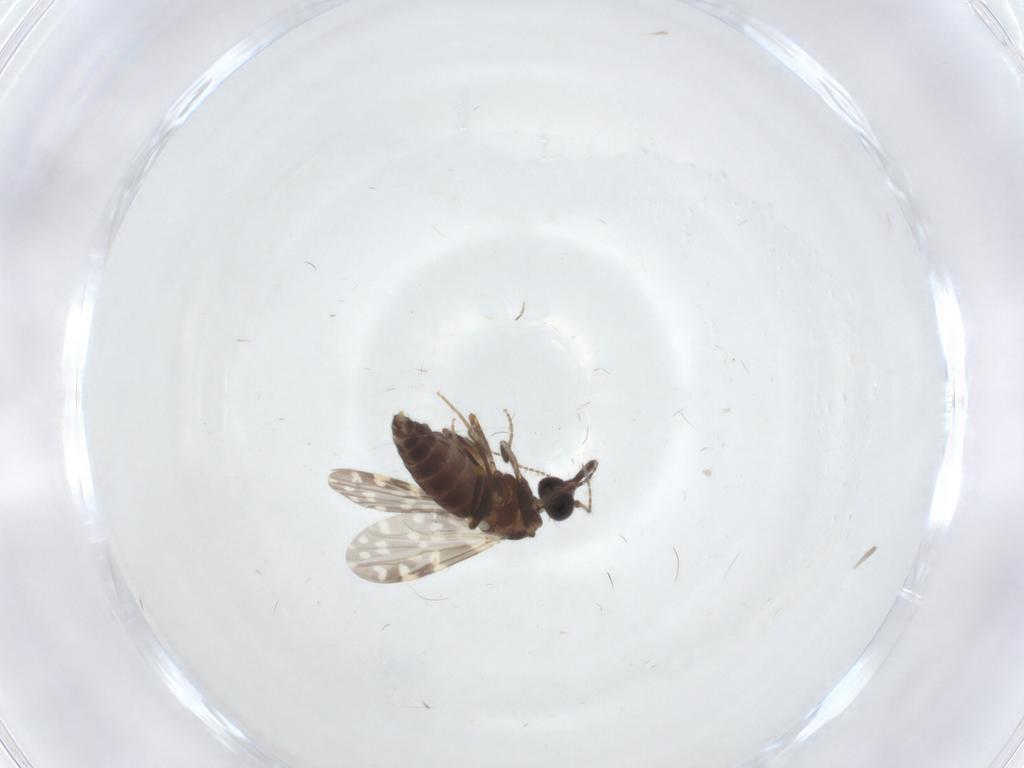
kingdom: Animalia
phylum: Arthropoda
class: Insecta
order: Diptera
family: Ceratopogonidae
